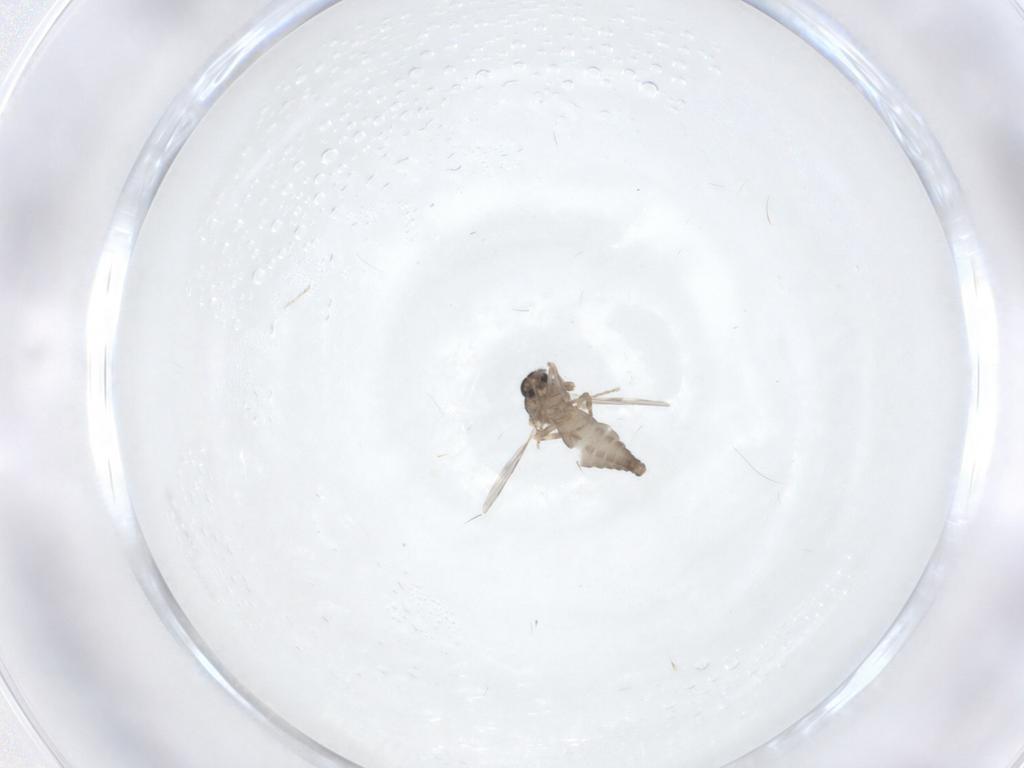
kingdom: Animalia
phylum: Arthropoda
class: Insecta
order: Diptera
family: Ceratopogonidae
